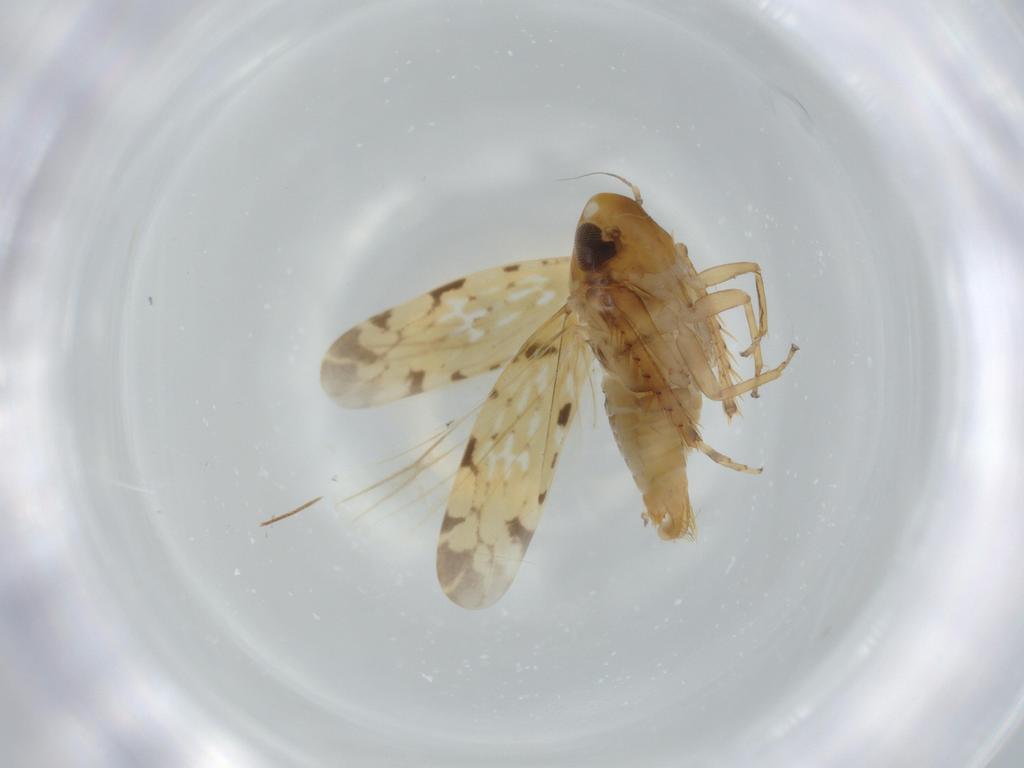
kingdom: Animalia
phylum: Arthropoda
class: Insecta
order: Hemiptera
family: Cicadellidae
